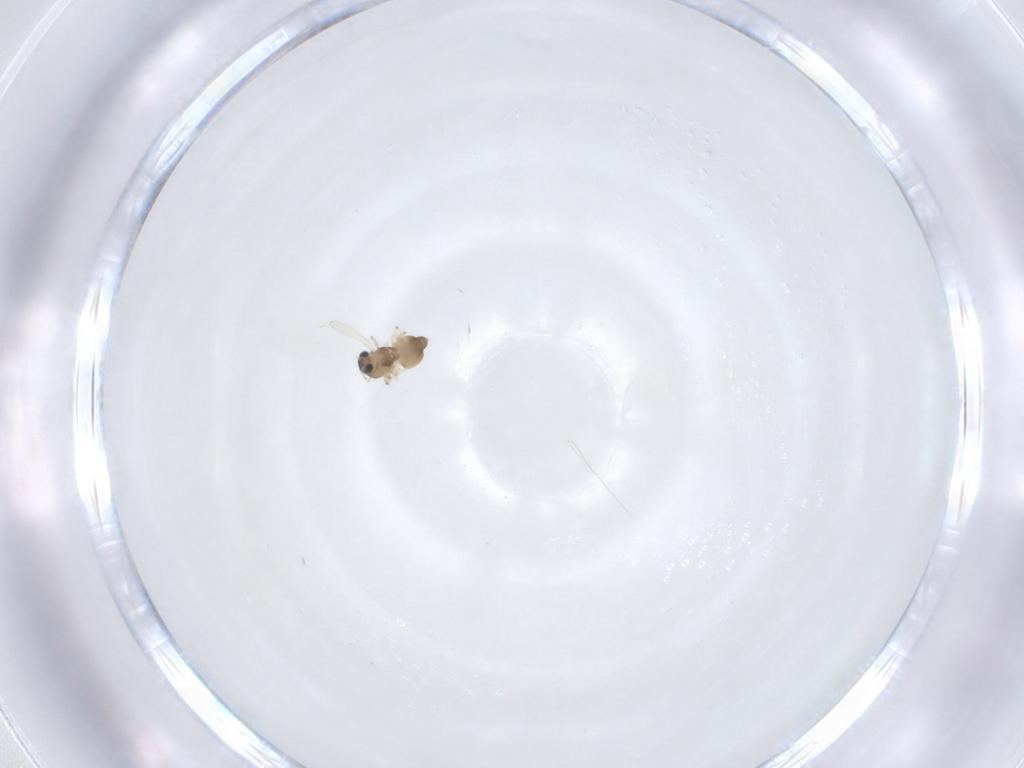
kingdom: Animalia
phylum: Arthropoda
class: Insecta
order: Diptera
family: Chironomidae
